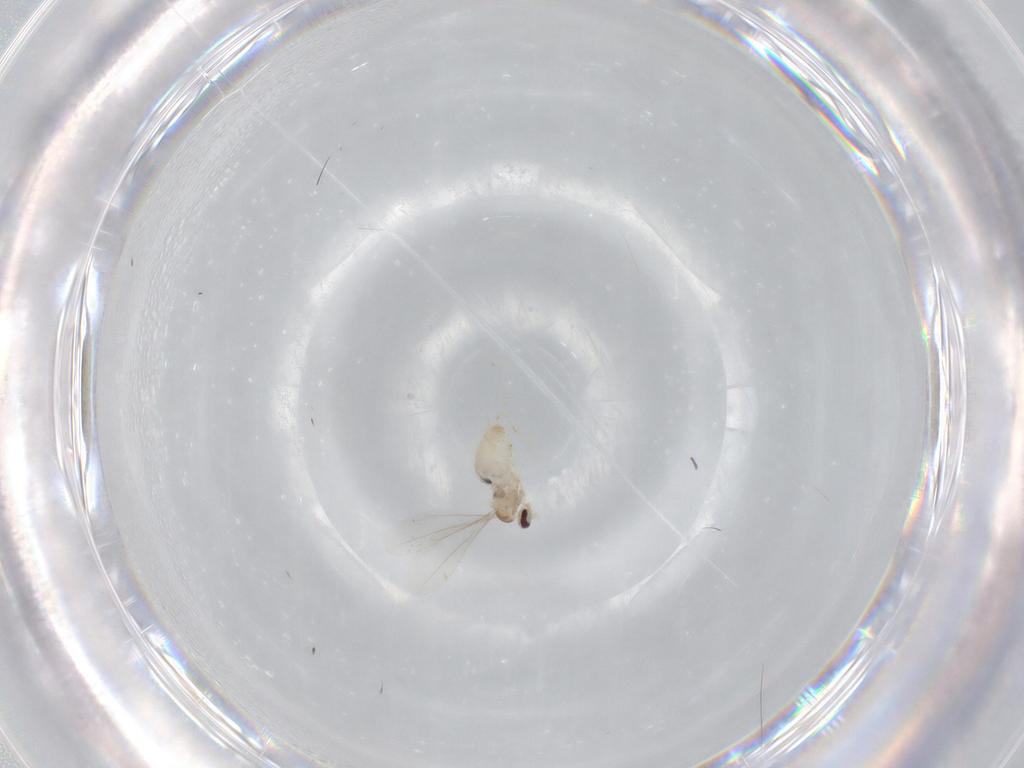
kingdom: Animalia
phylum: Arthropoda
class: Insecta
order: Diptera
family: Cecidomyiidae
